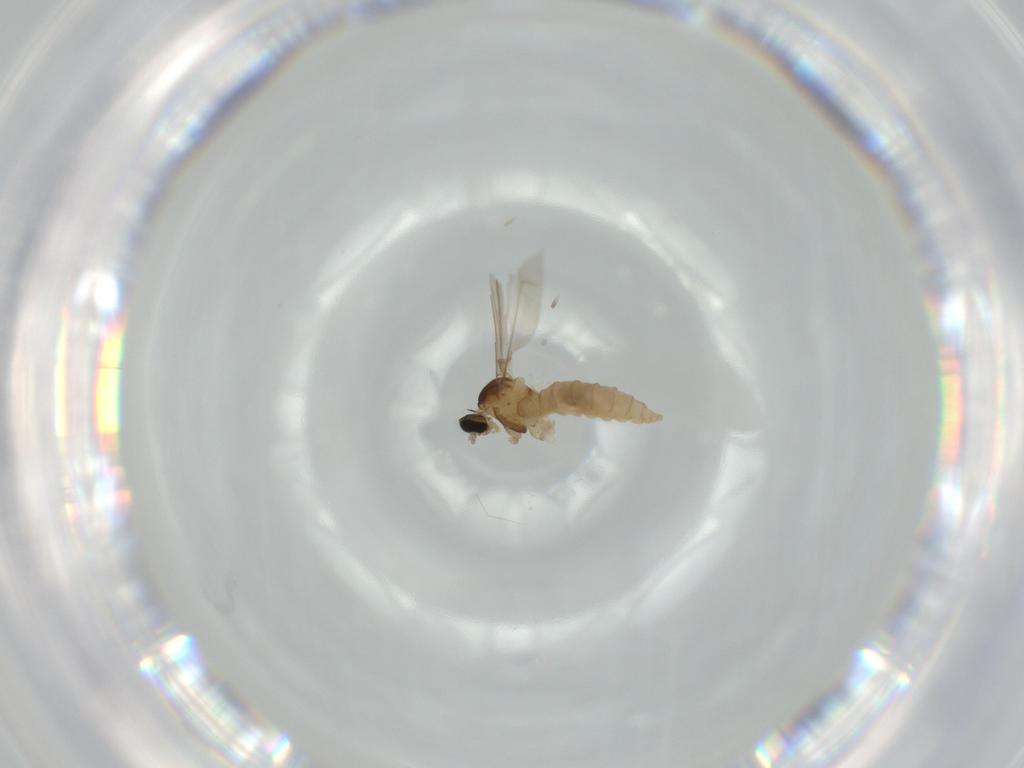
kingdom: Animalia
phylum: Arthropoda
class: Insecta
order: Diptera
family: Cecidomyiidae
